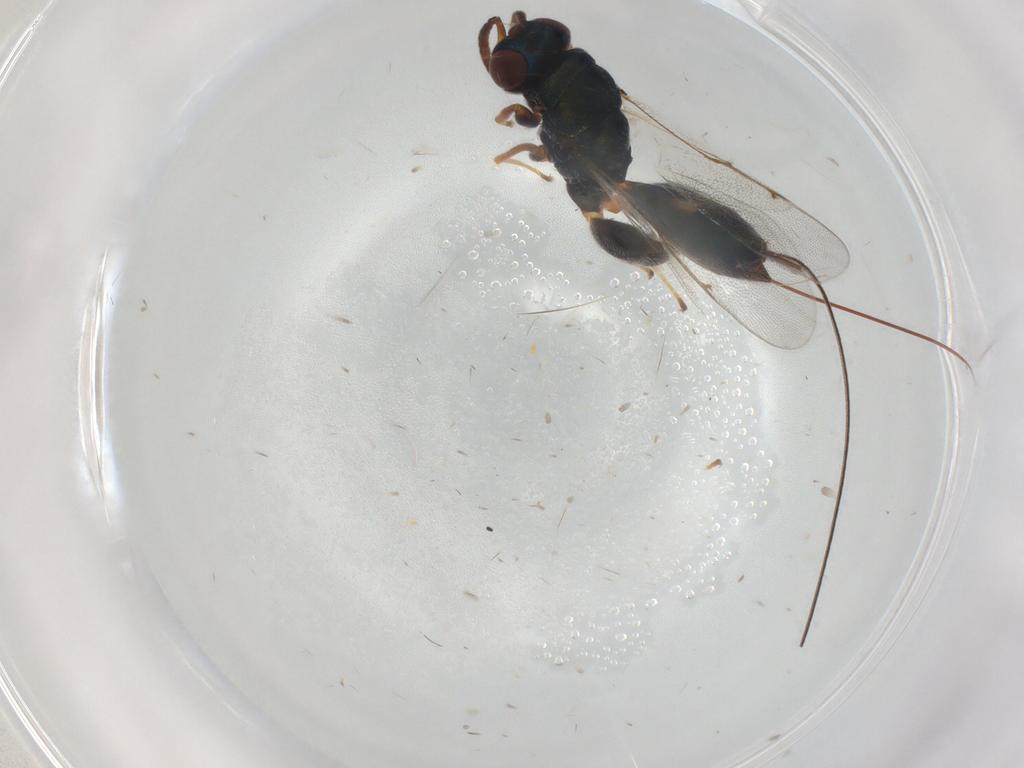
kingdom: Animalia
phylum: Arthropoda
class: Insecta
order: Hymenoptera
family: Torymidae
